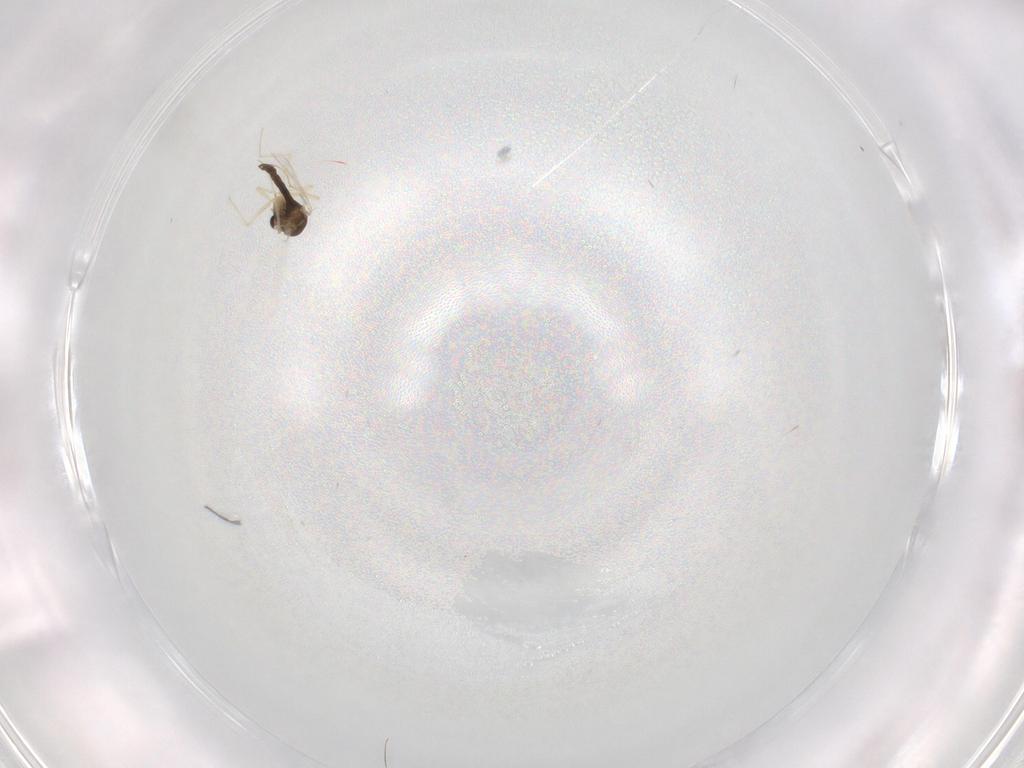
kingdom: Animalia
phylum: Arthropoda
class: Insecta
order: Diptera
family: Chironomidae
